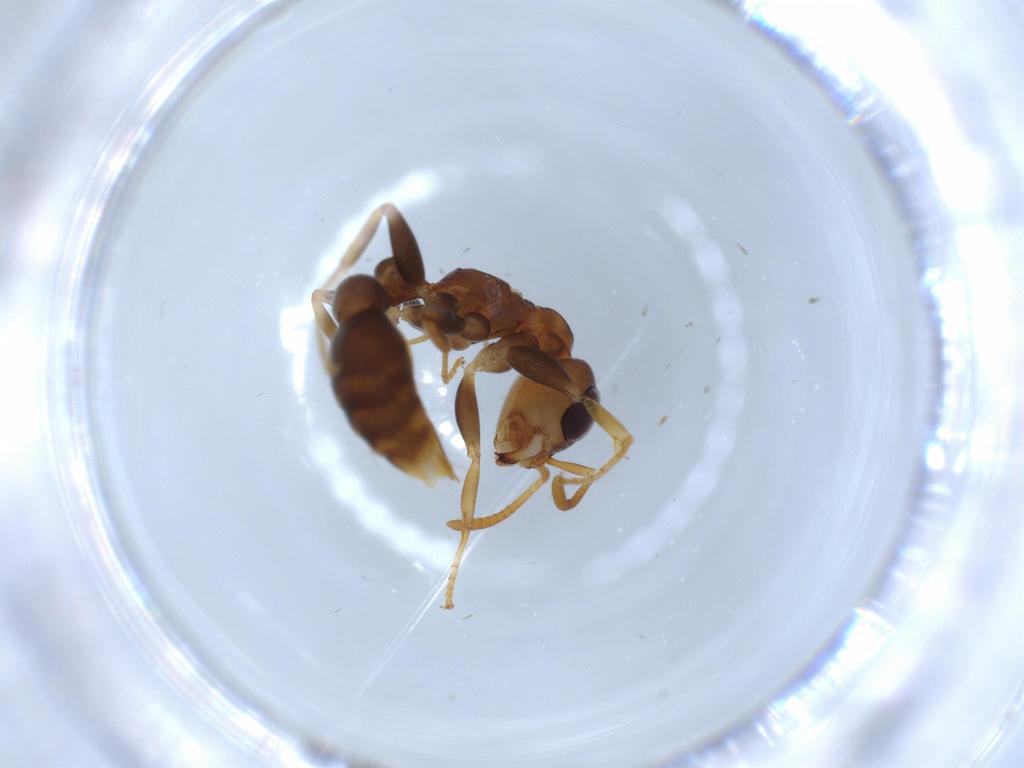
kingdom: Animalia
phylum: Arthropoda
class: Insecta
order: Hymenoptera
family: Formicidae
